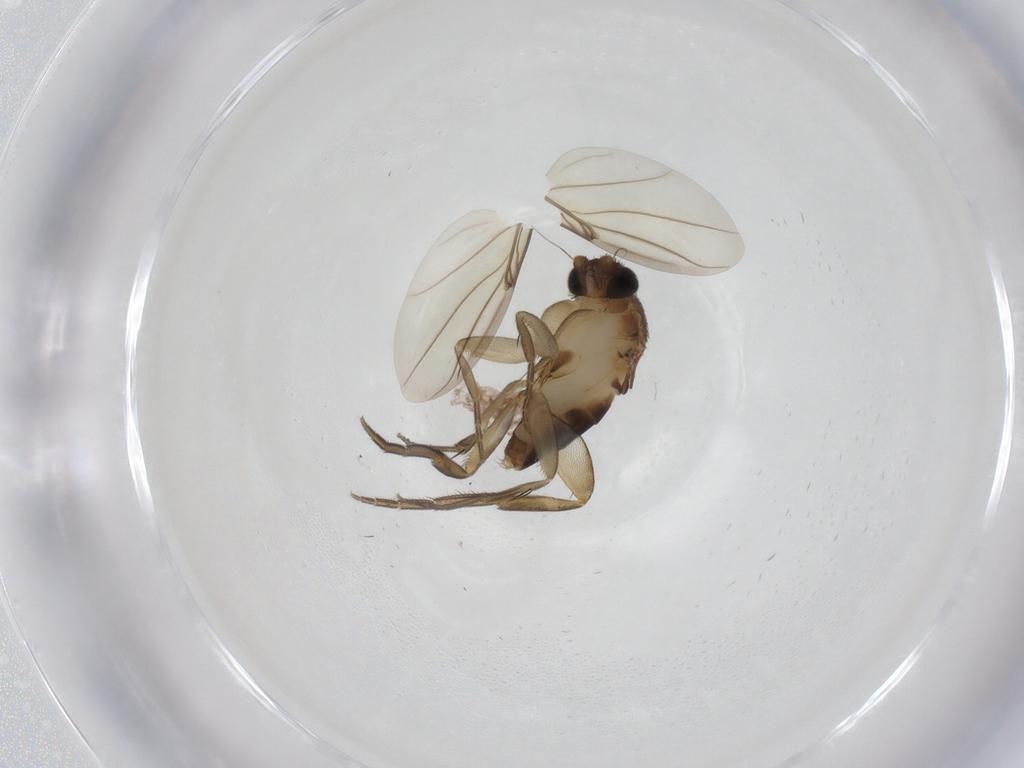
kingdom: Animalia
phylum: Arthropoda
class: Insecta
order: Diptera
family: Phoridae
